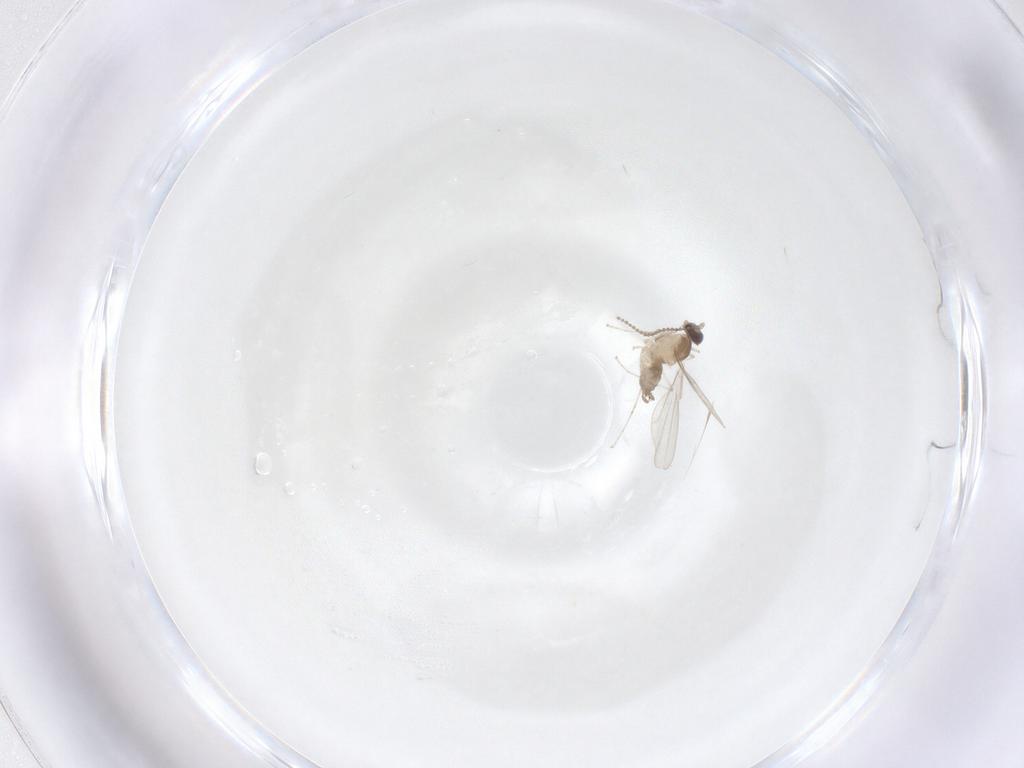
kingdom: Animalia
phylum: Arthropoda
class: Insecta
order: Diptera
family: Cecidomyiidae
